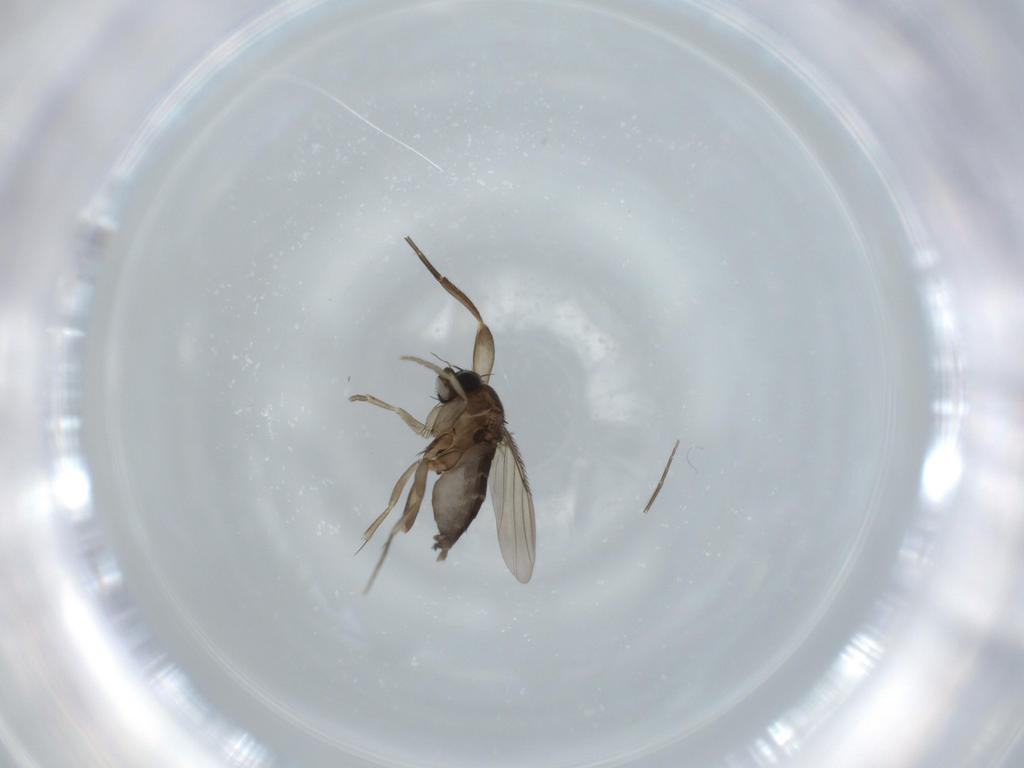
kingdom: Animalia
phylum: Arthropoda
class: Insecta
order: Diptera
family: Phoridae
